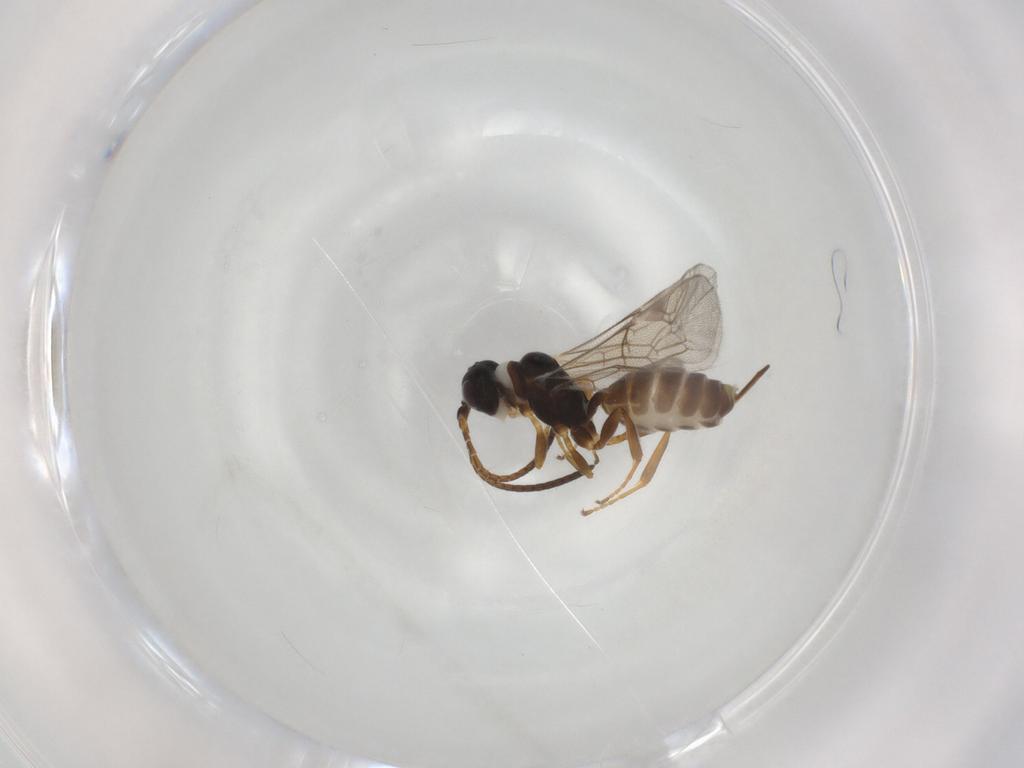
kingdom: Animalia
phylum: Arthropoda
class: Insecta
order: Hymenoptera
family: Ichneumonidae
